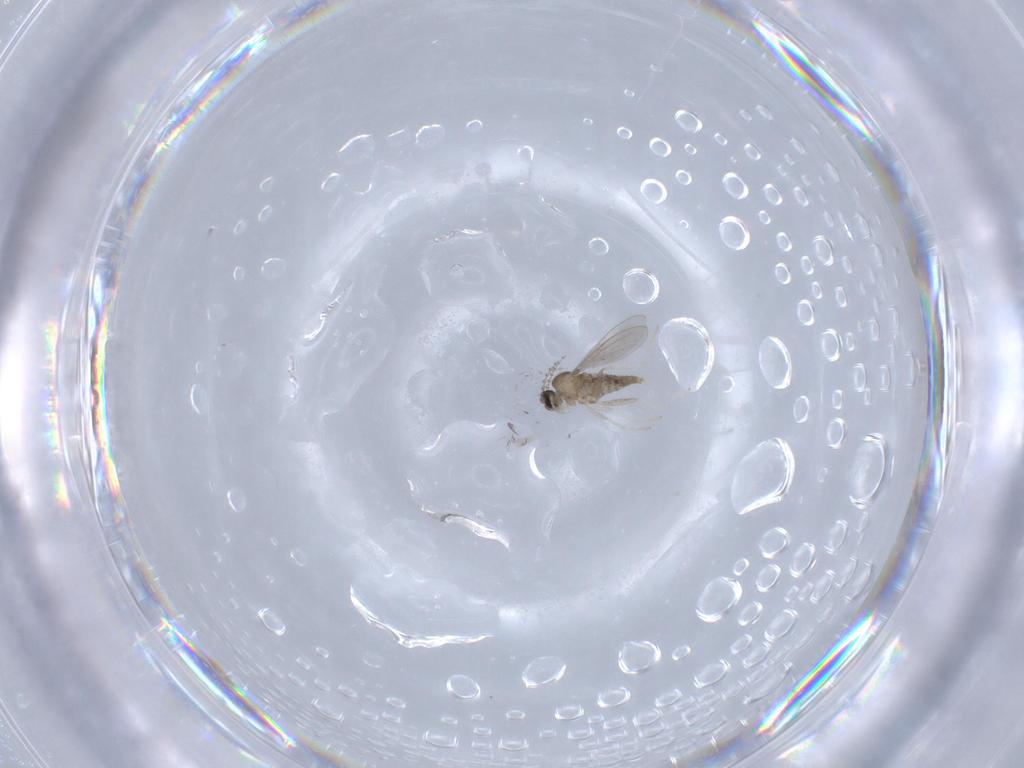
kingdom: Animalia
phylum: Arthropoda
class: Insecta
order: Diptera
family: Cecidomyiidae
